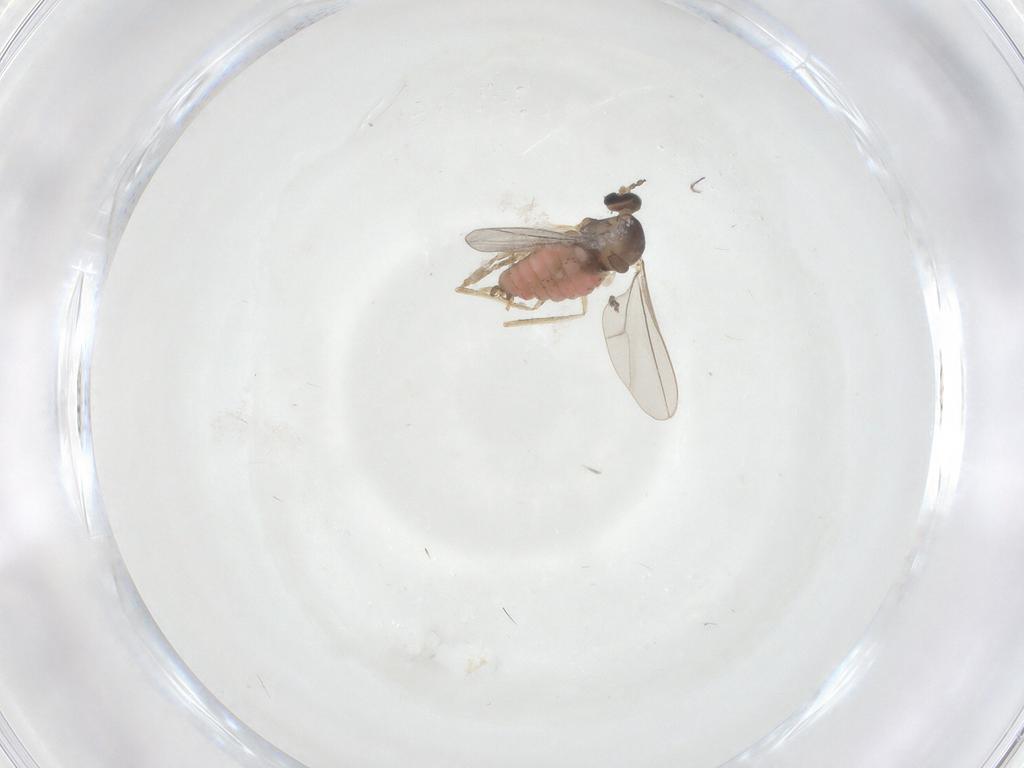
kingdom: Animalia
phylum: Arthropoda
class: Insecta
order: Diptera
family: Cecidomyiidae
